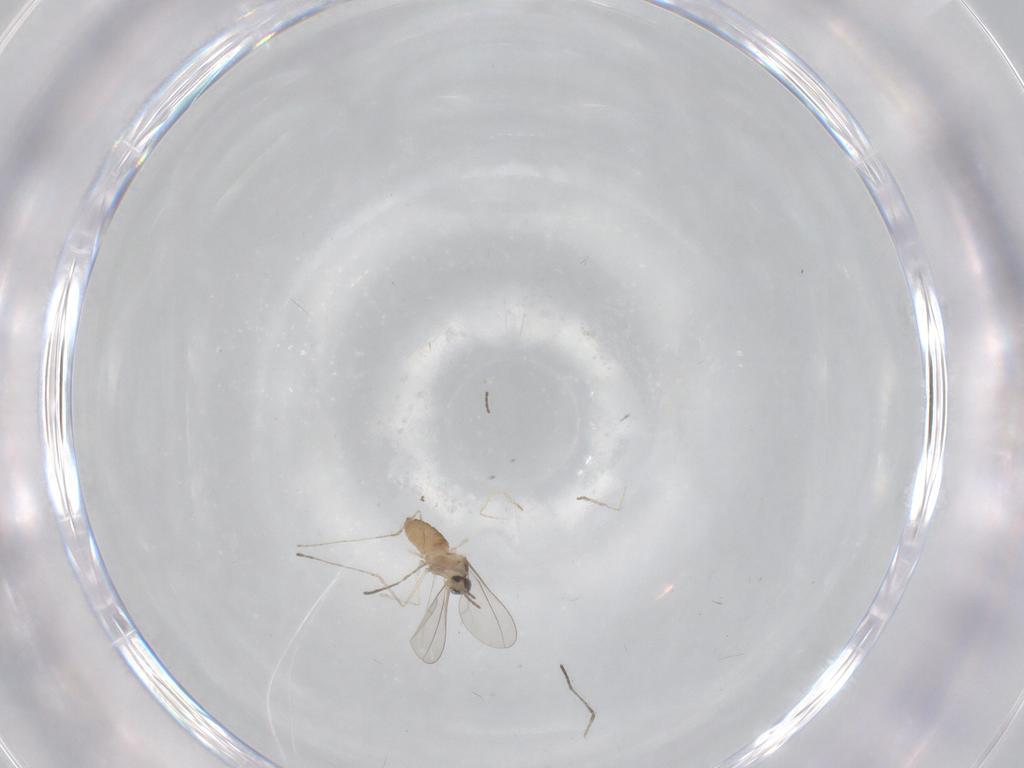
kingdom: Animalia
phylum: Arthropoda
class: Insecta
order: Diptera
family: Cecidomyiidae
